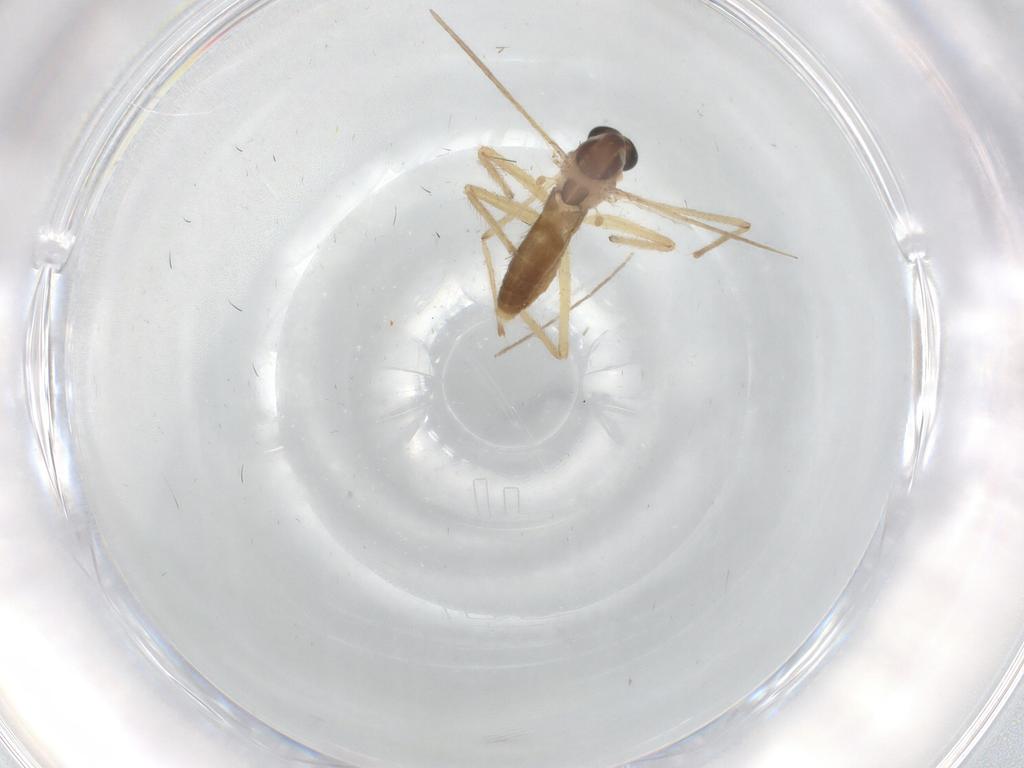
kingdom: Animalia
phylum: Arthropoda
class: Insecta
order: Diptera
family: Chironomidae
